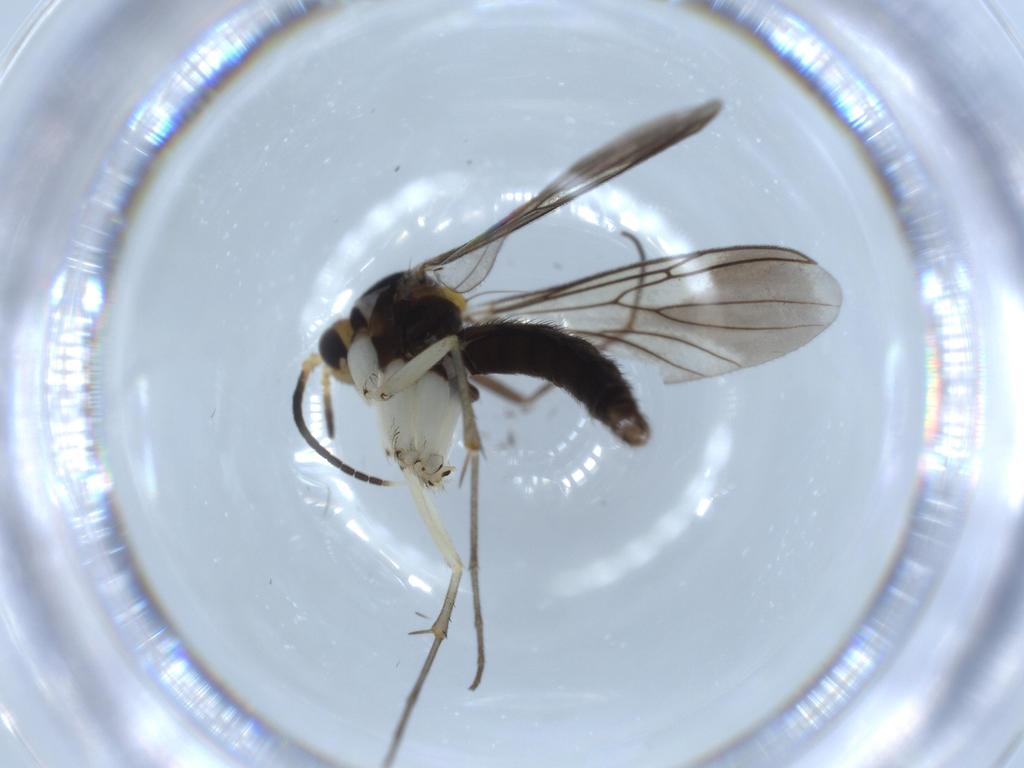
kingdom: Animalia
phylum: Arthropoda
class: Insecta
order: Diptera
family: Mycetophilidae
